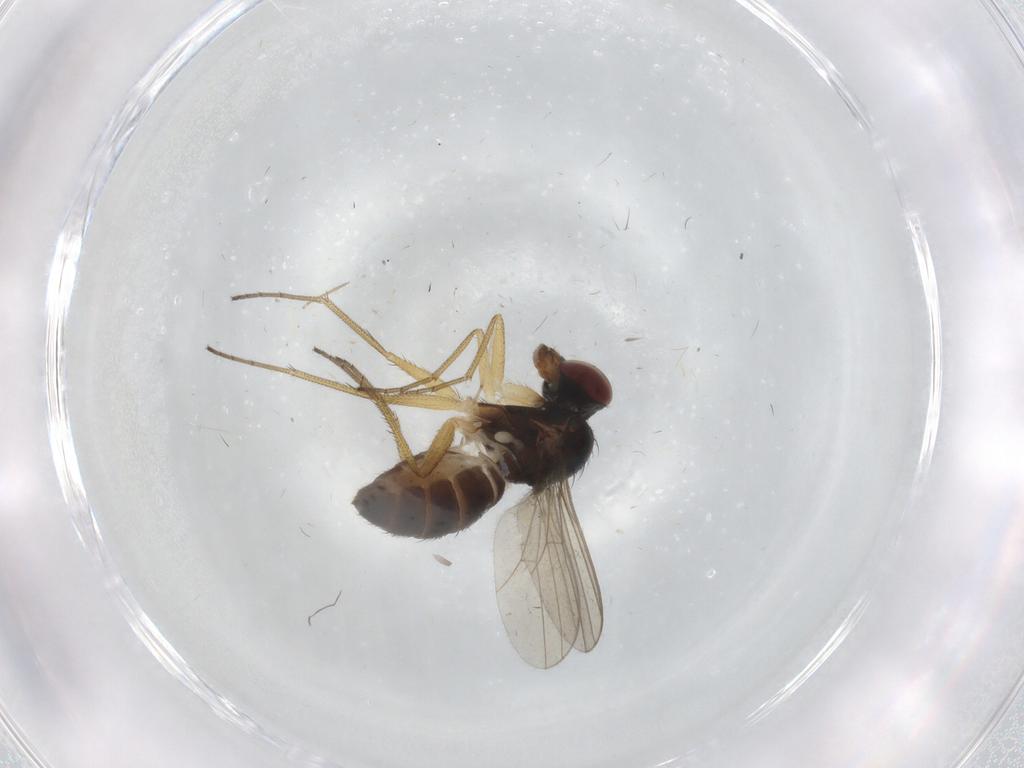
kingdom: Animalia
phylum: Arthropoda
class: Insecta
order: Diptera
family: Dolichopodidae
